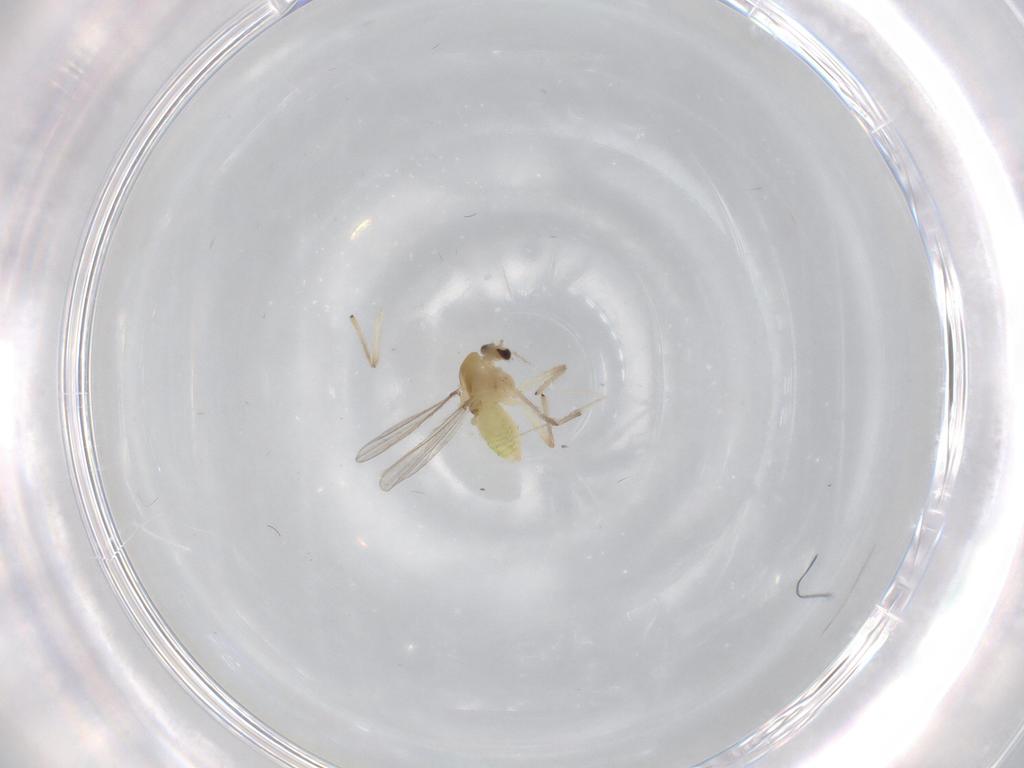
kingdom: Animalia
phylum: Arthropoda
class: Insecta
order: Diptera
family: Chironomidae
